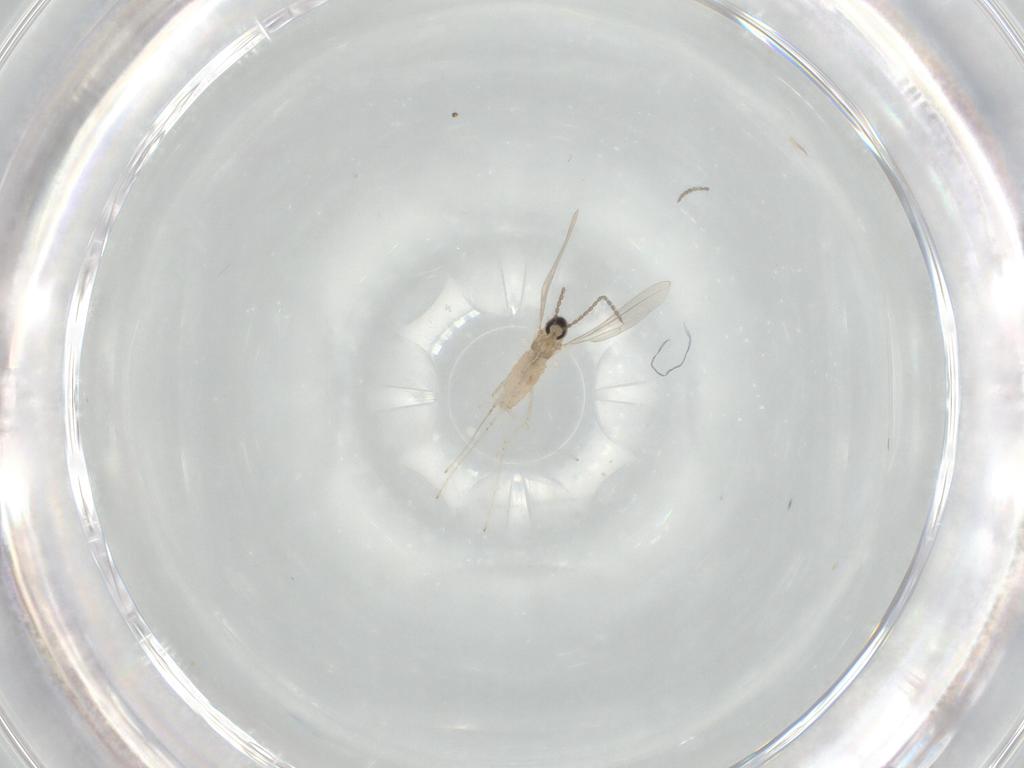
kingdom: Animalia
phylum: Arthropoda
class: Insecta
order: Diptera
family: Cecidomyiidae
